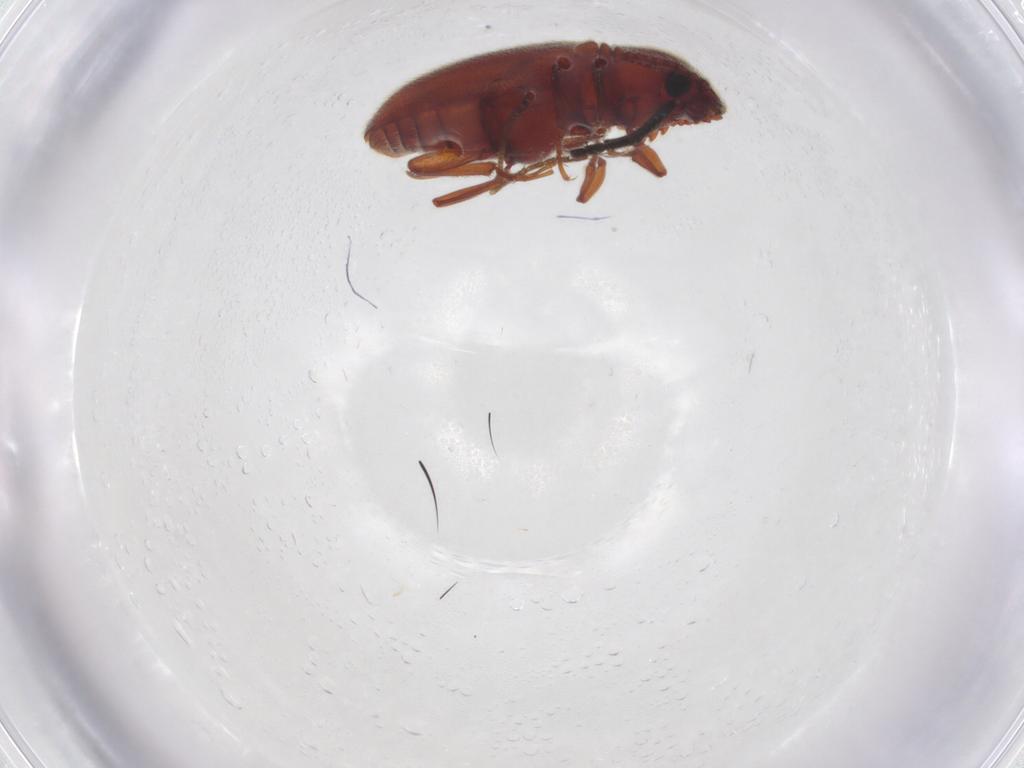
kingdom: Animalia
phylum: Arthropoda
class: Insecta
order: Coleoptera
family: Cryptophagidae
